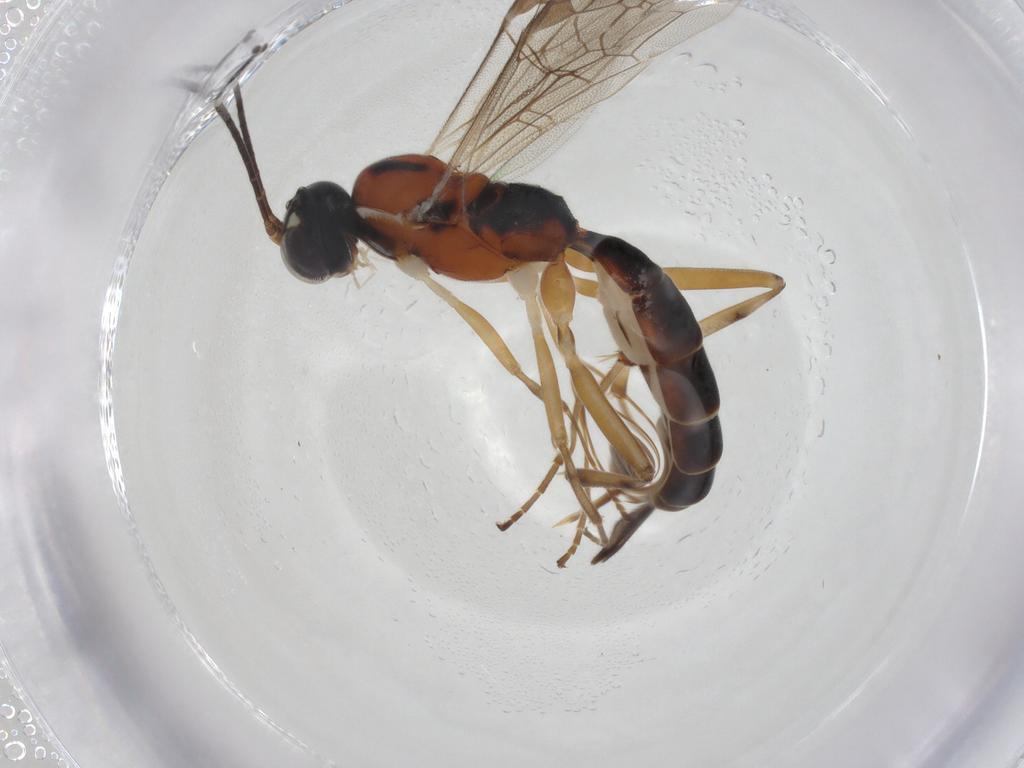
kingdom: Animalia
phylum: Arthropoda
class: Insecta
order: Hymenoptera
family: Ichneumonidae
